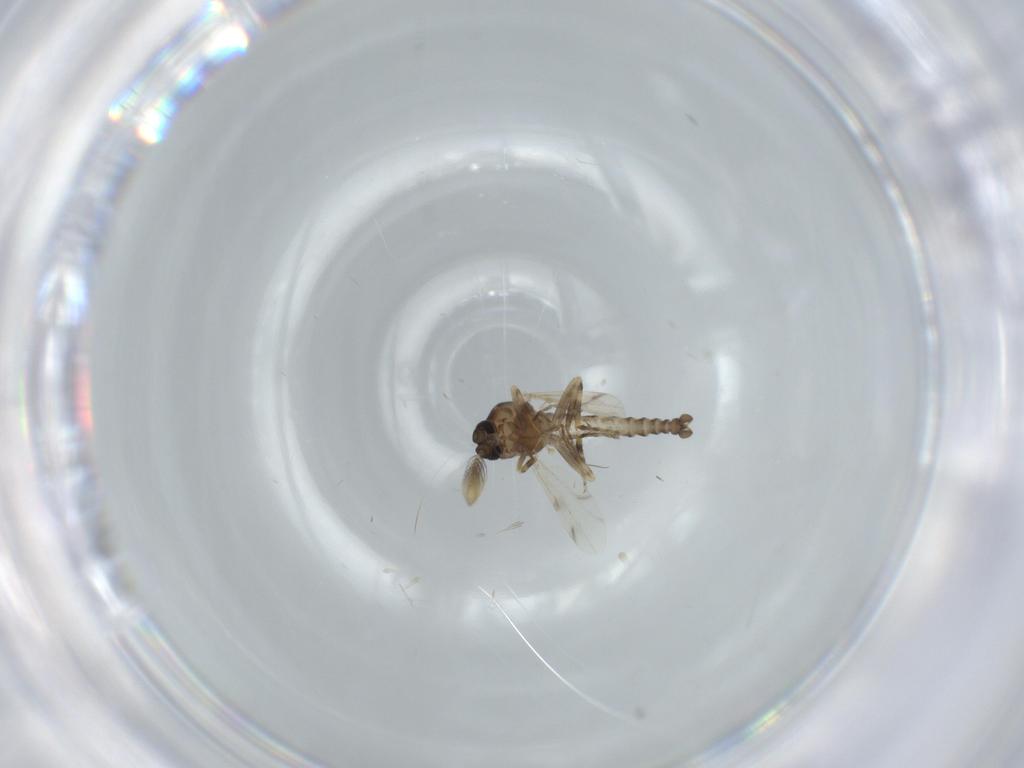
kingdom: Animalia
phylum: Arthropoda
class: Insecta
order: Diptera
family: Ceratopogonidae
